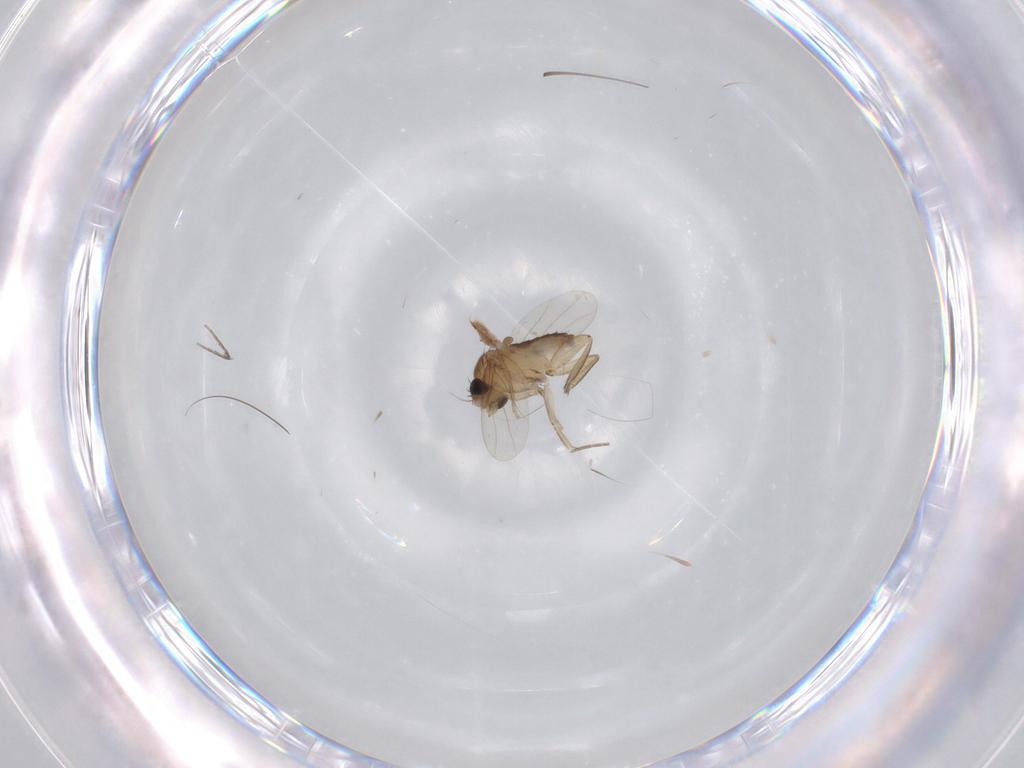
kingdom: Animalia
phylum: Arthropoda
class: Insecta
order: Diptera
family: Phoridae
